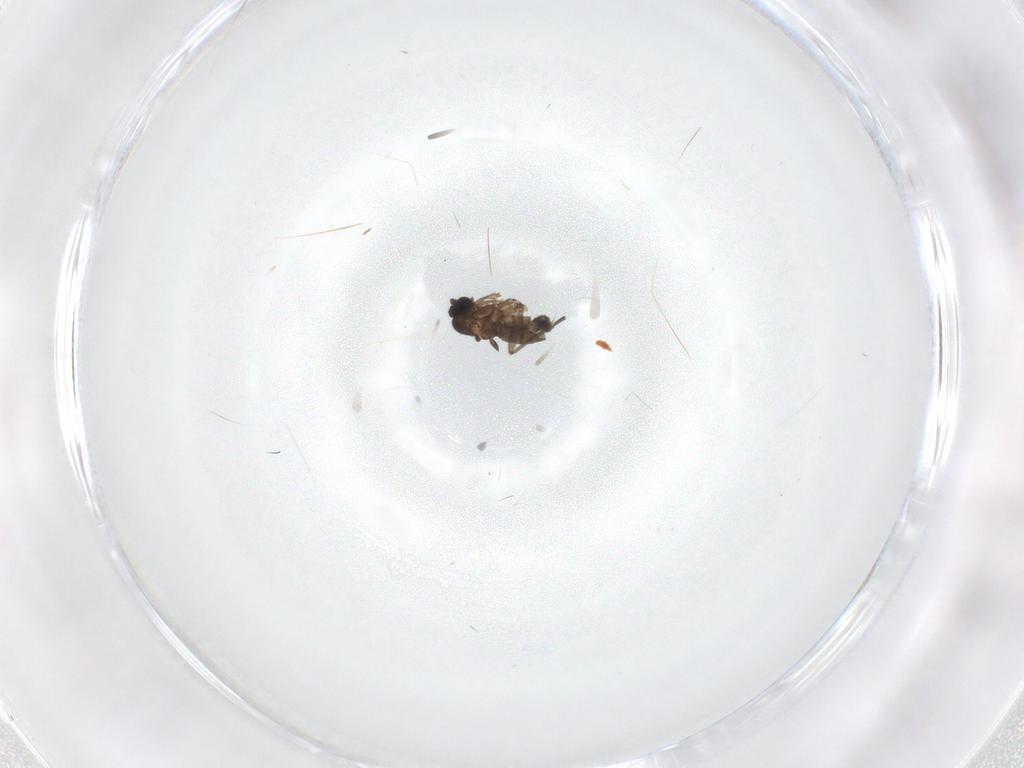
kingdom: Animalia
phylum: Arthropoda
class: Insecta
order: Diptera
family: Sciaridae
